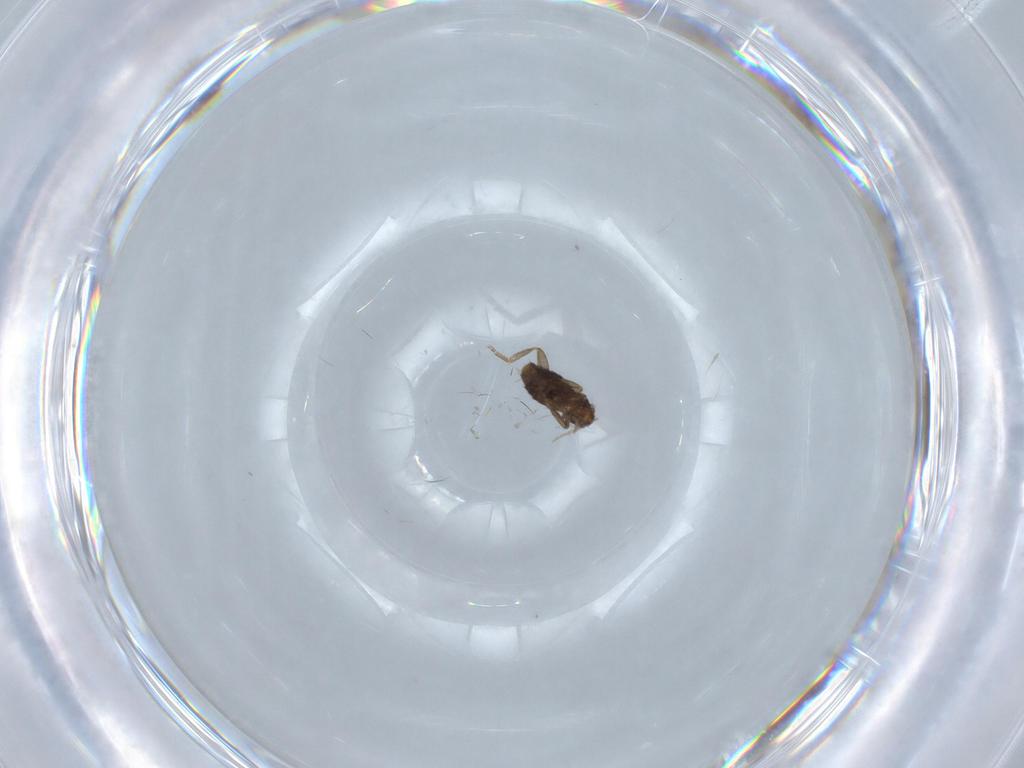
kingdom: Animalia
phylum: Arthropoda
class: Insecta
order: Diptera
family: Chironomidae
